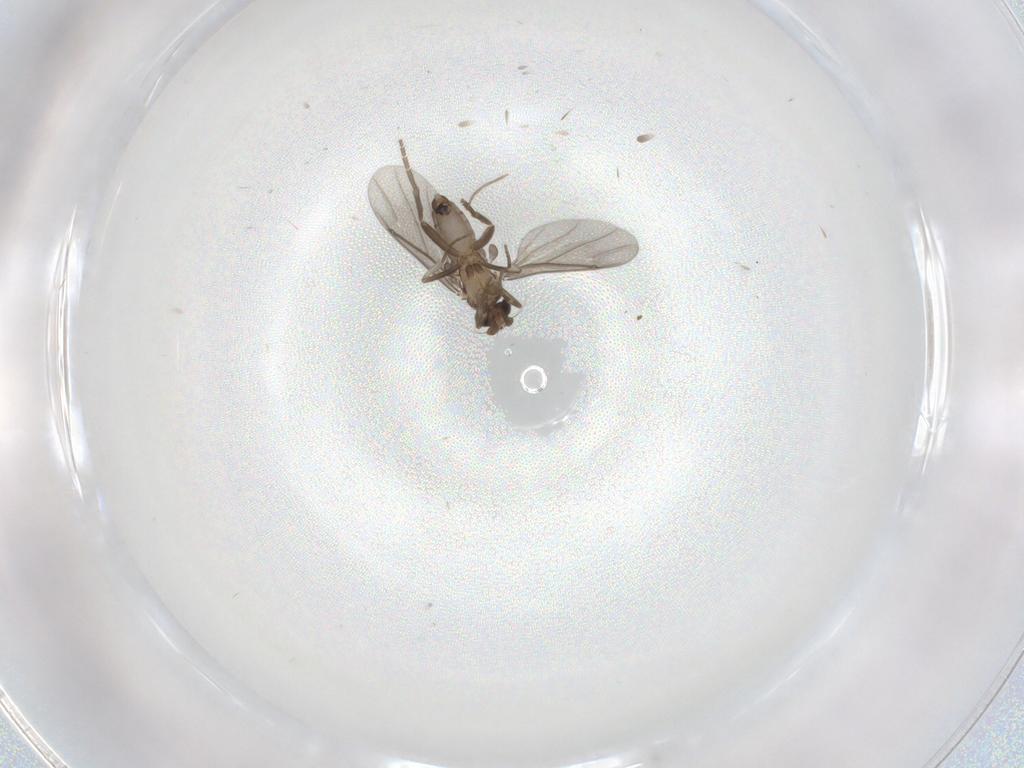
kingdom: Animalia
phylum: Arthropoda
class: Insecta
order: Diptera
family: Phoridae
